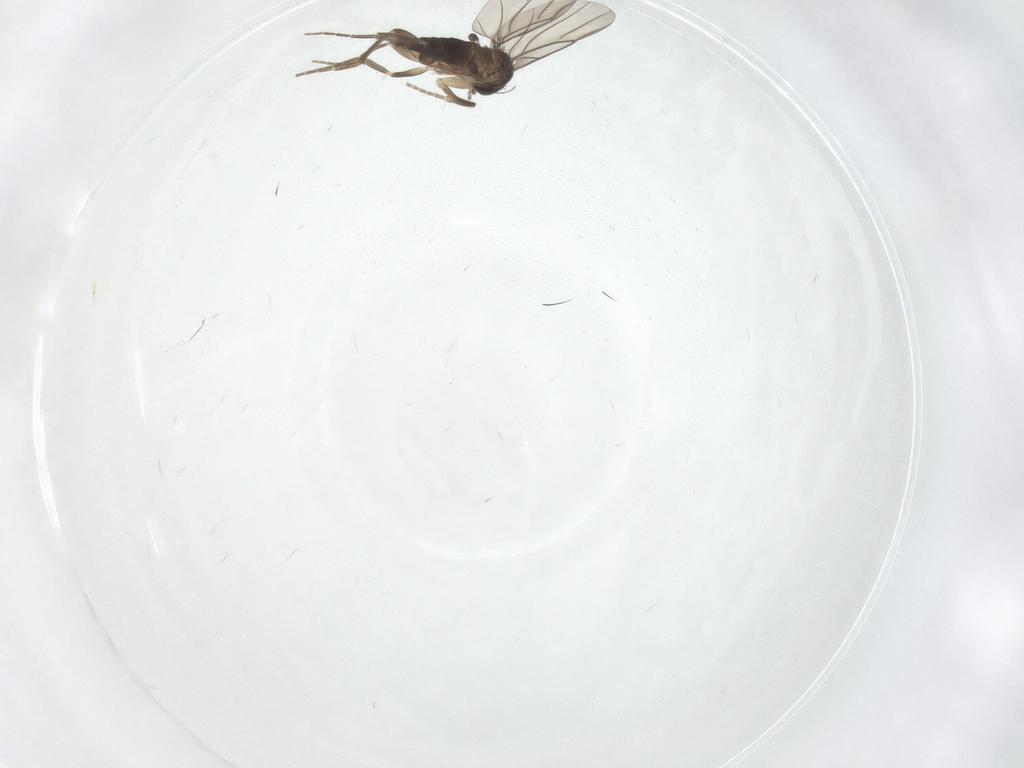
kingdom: Animalia
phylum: Arthropoda
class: Insecta
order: Diptera
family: Phoridae
